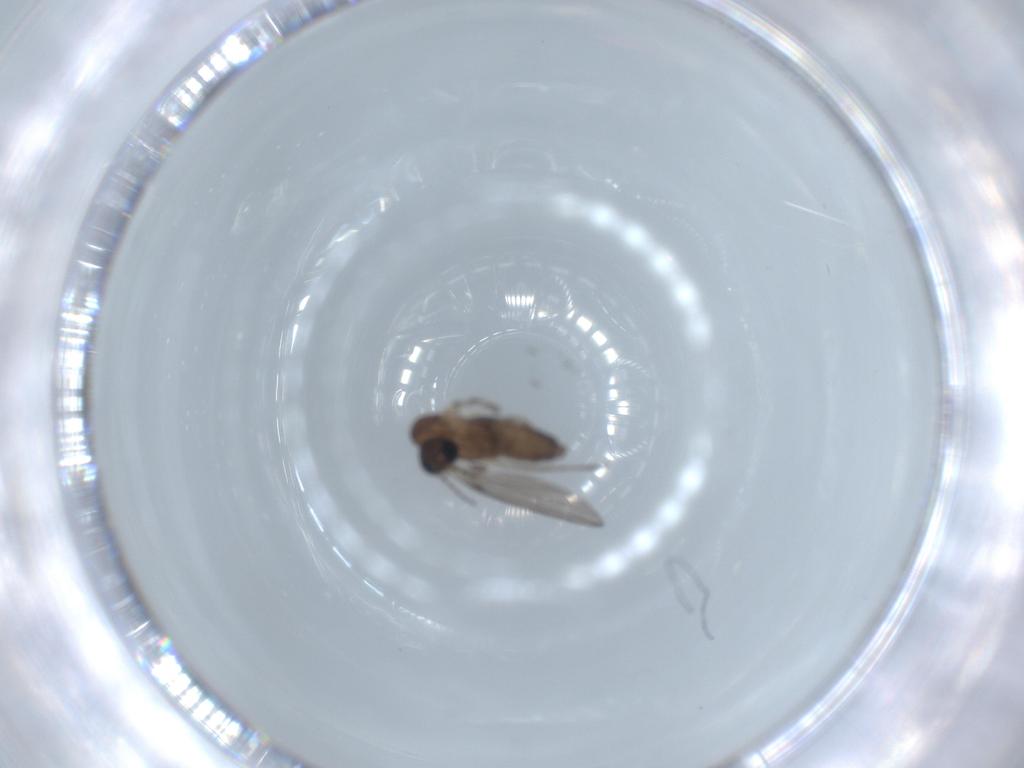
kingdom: Animalia
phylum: Arthropoda
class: Insecta
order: Diptera
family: Psychodidae
